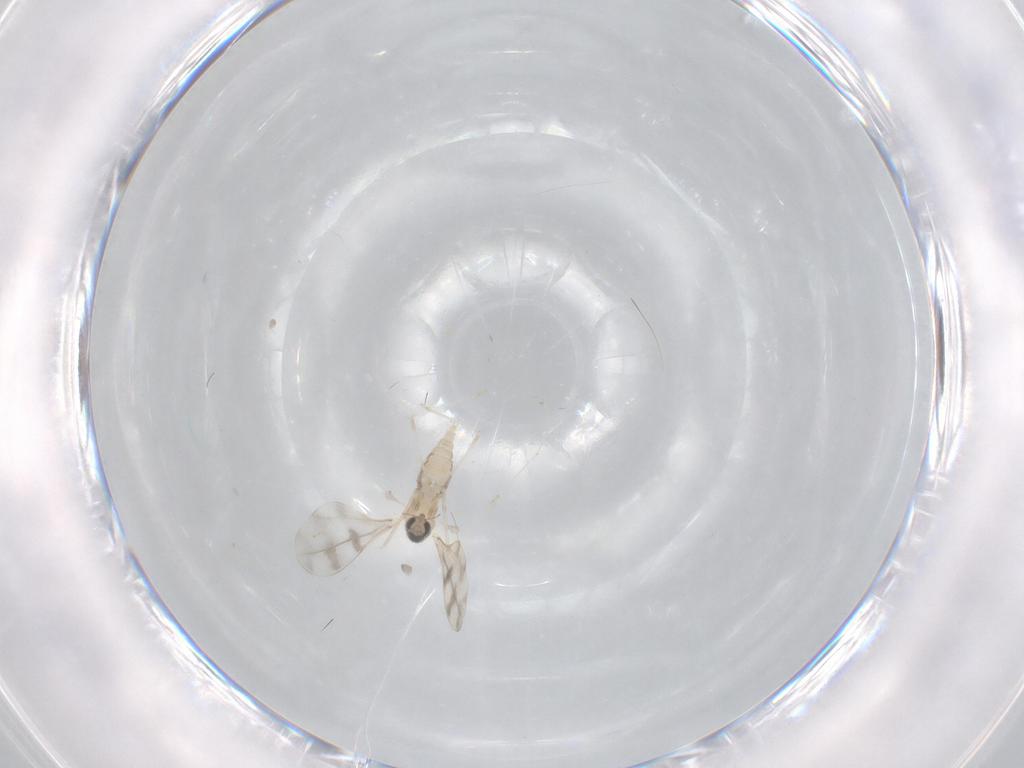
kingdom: Animalia
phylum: Arthropoda
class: Insecta
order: Diptera
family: Cecidomyiidae
